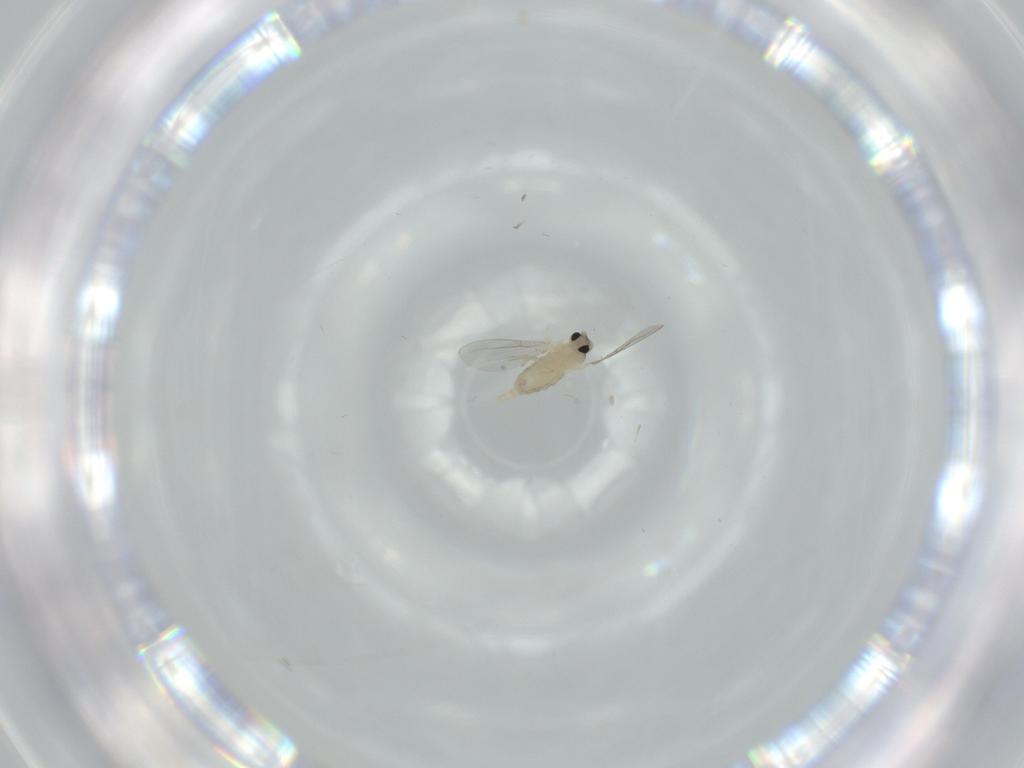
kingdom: Animalia
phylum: Arthropoda
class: Insecta
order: Diptera
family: Cecidomyiidae
